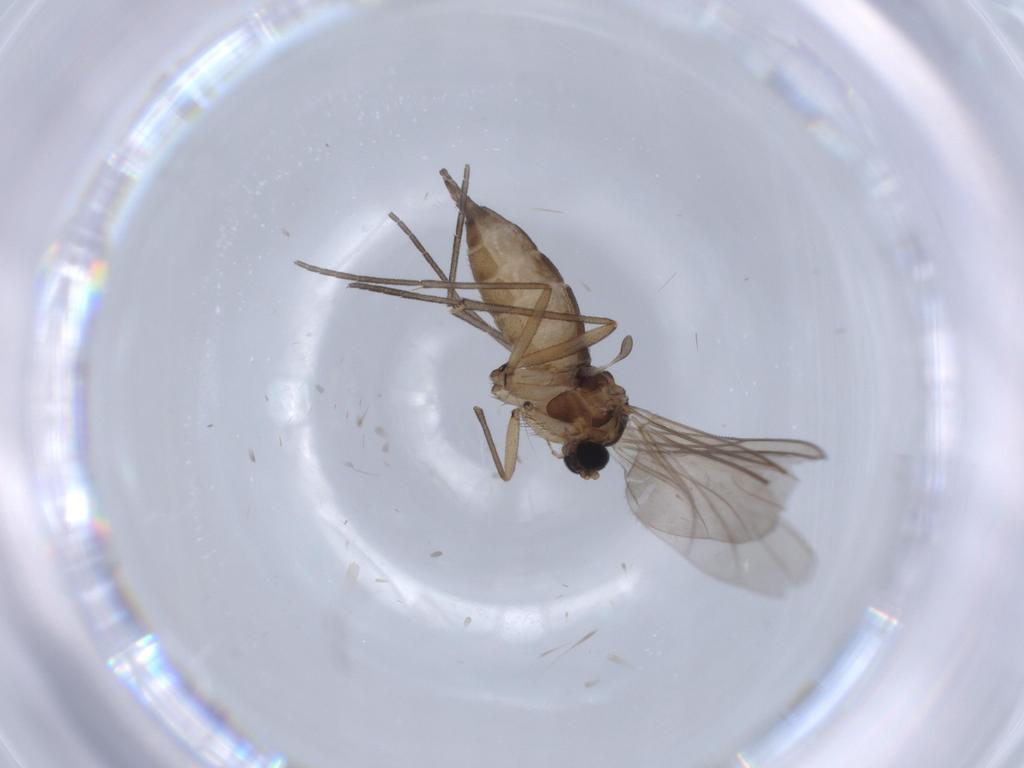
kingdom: Animalia
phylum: Arthropoda
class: Insecta
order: Diptera
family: Sciaridae
